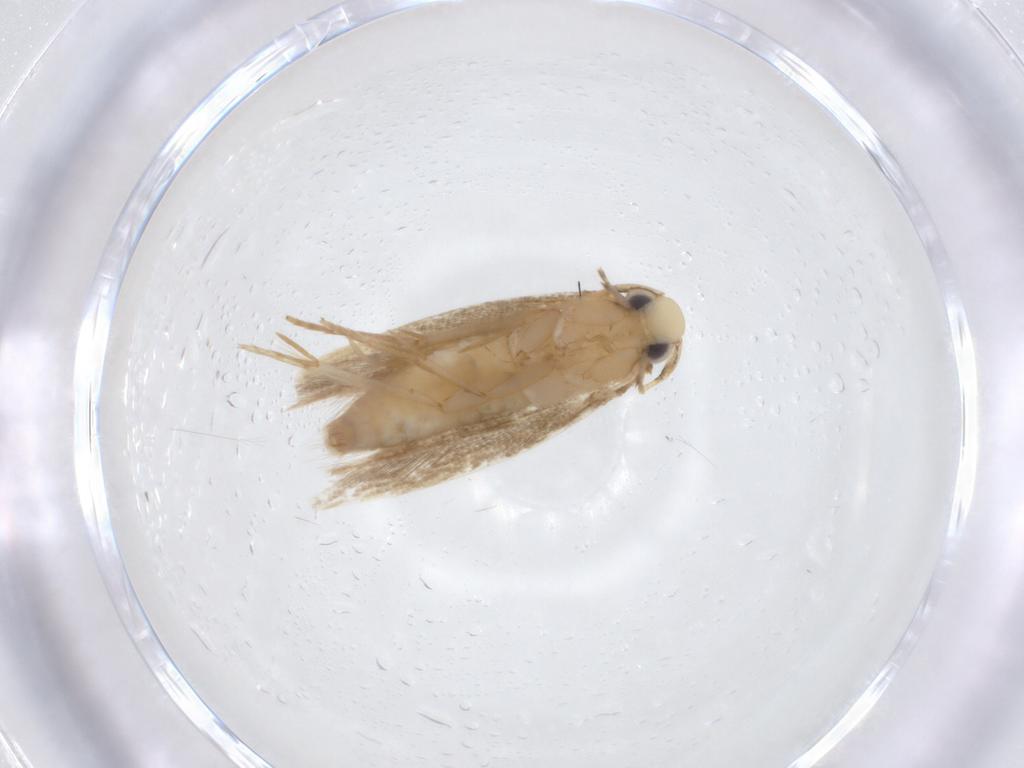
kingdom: Animalia
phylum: Arthropoda
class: Insecta
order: Lepidoptera
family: Tineidae
